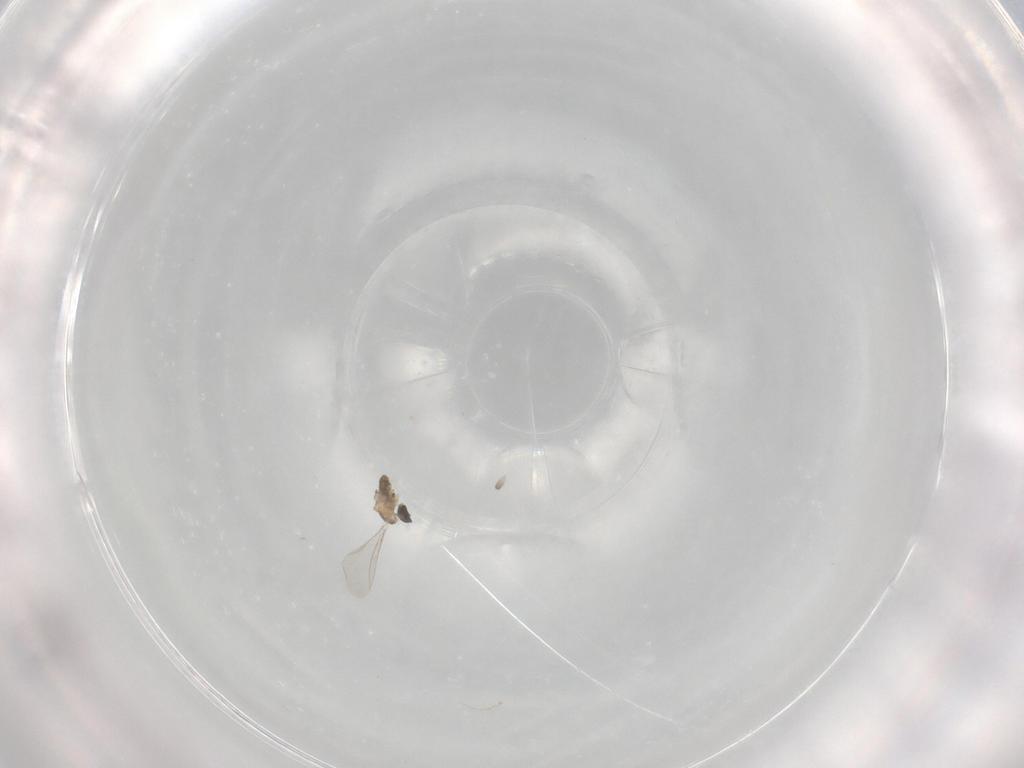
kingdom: Animalia
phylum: Arthropoda
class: Insecta
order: Diptera
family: Cecidomyiidae
